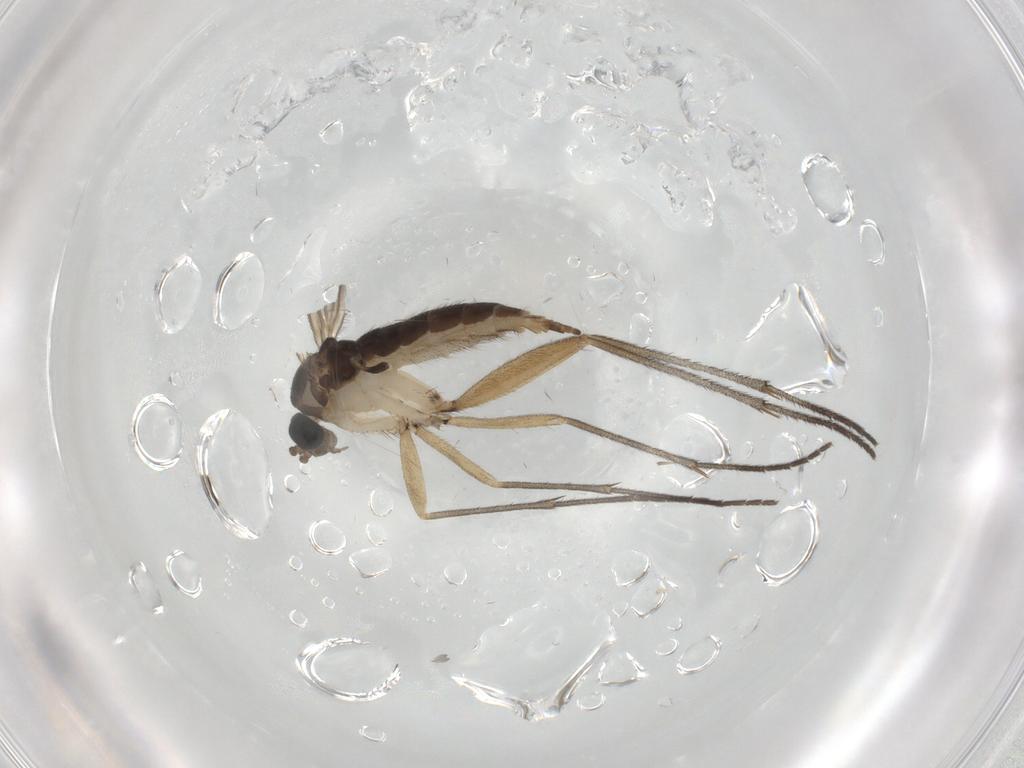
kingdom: Animalia
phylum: Arthropoda
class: Insecta
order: Diptera
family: Sciaridae
